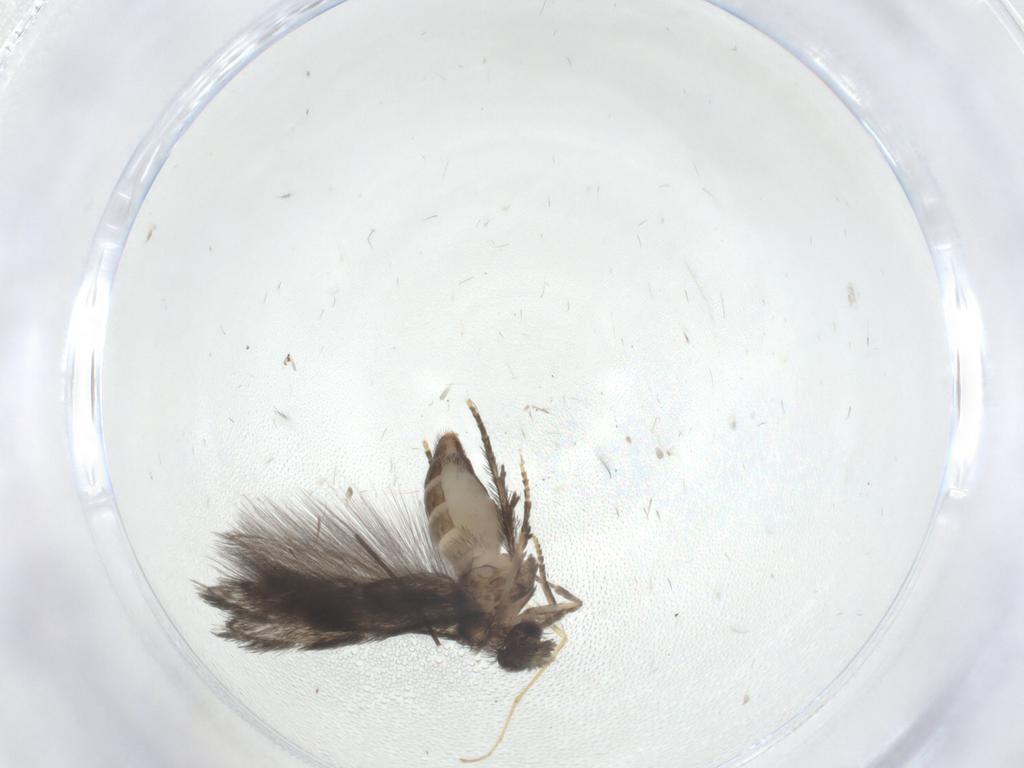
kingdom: Animalia
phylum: Arthropoda
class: Insecta
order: Trichoptera
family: Hydroptilidae
